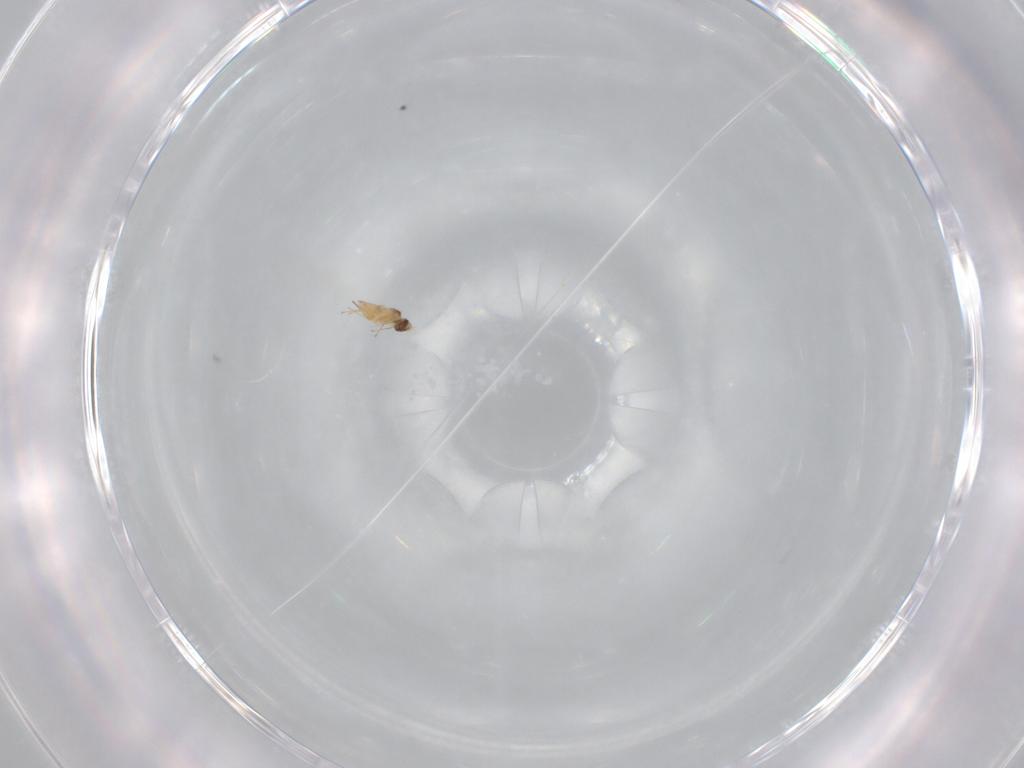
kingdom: Animalia
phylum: Arthropoda
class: Insecta
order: Hymenoptera
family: Mymaridae
